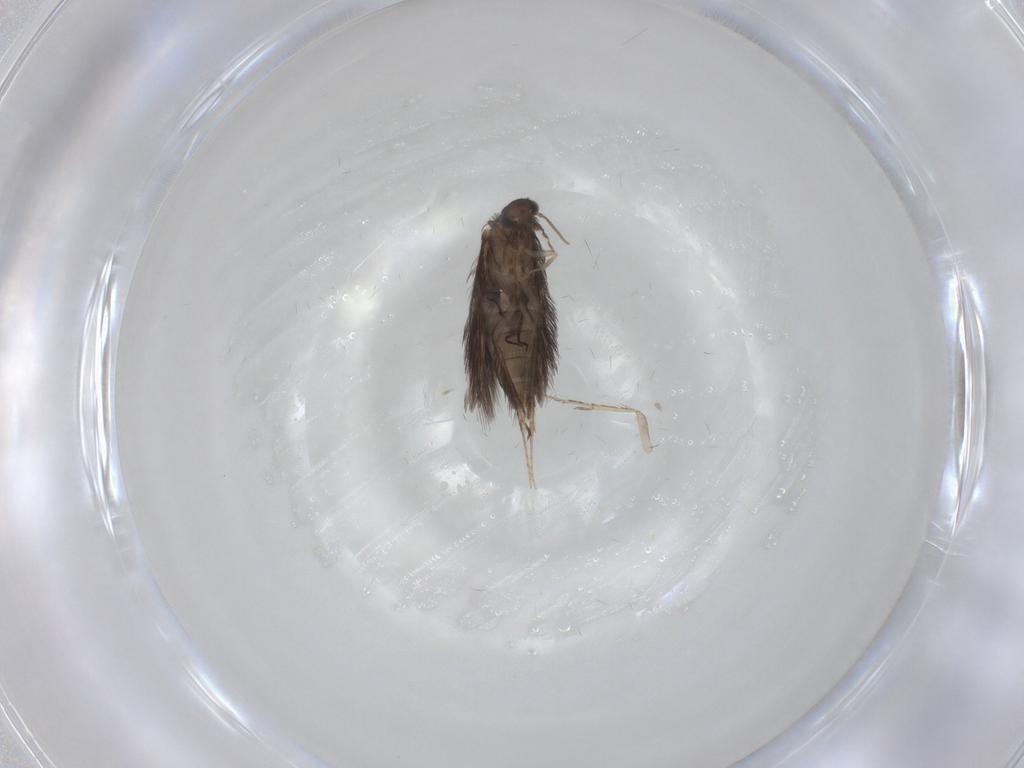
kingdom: Animalia
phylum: Arthropoda
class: Insecta
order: Trichoptera
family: Hydroptilidae
